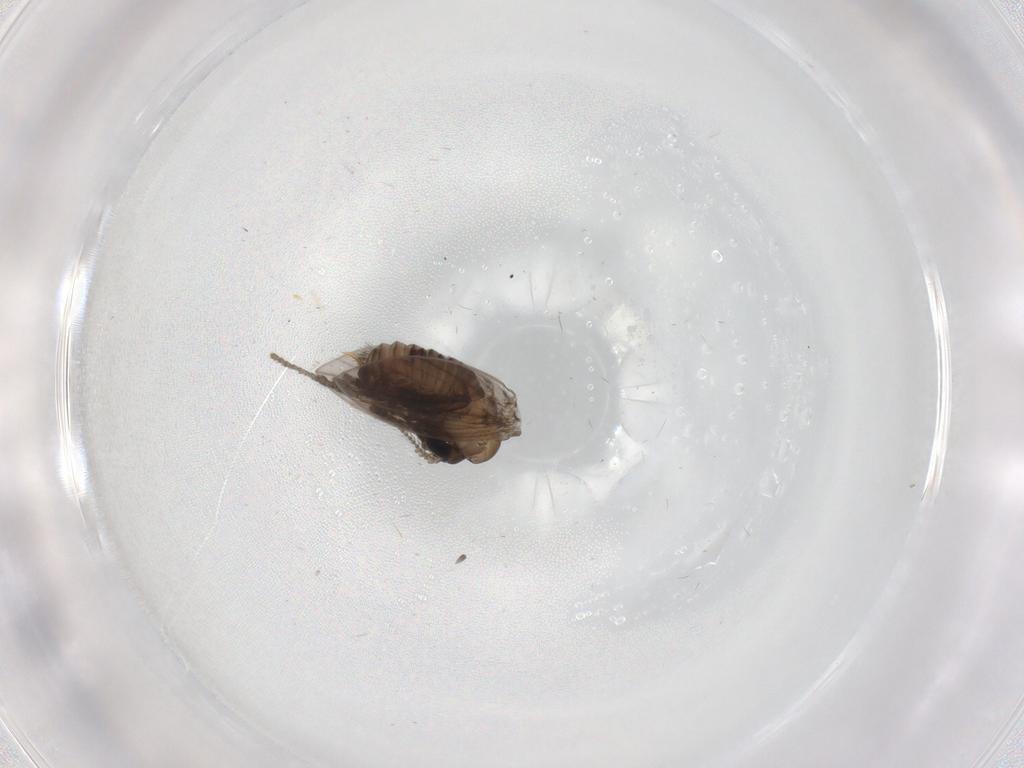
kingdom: Animalia
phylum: Arthropoda
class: Insecta
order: Diptera
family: Psychodidae
